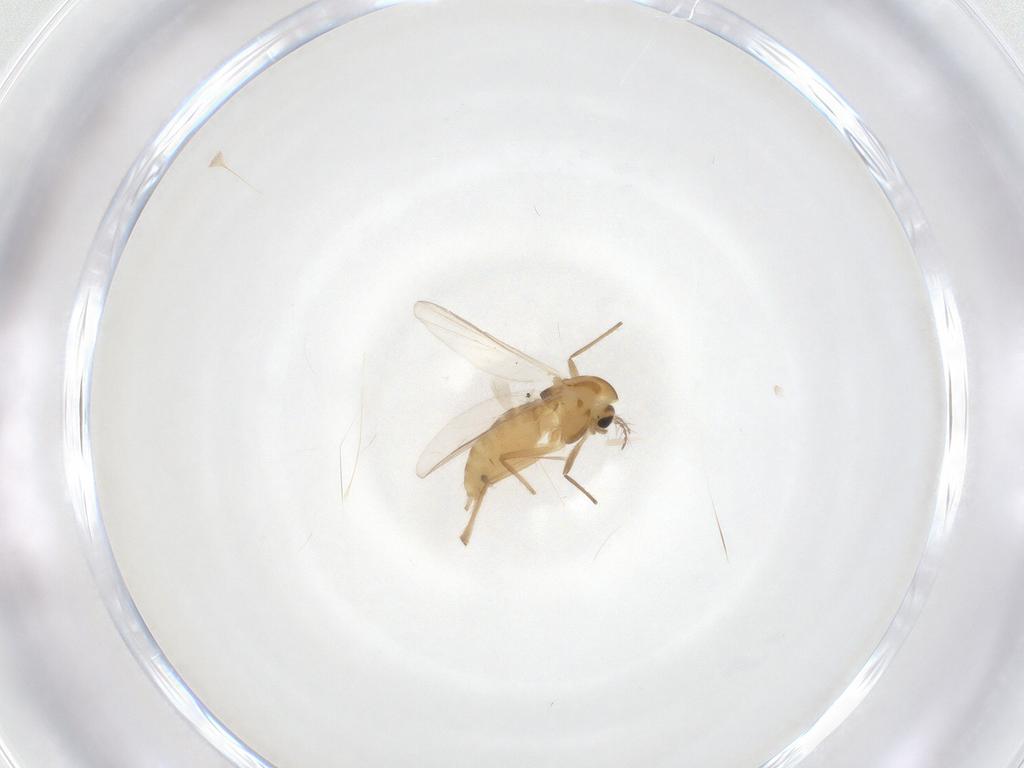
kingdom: Animalia
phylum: Arthropoda
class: Insecta
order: Diptera
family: Chironomidae
